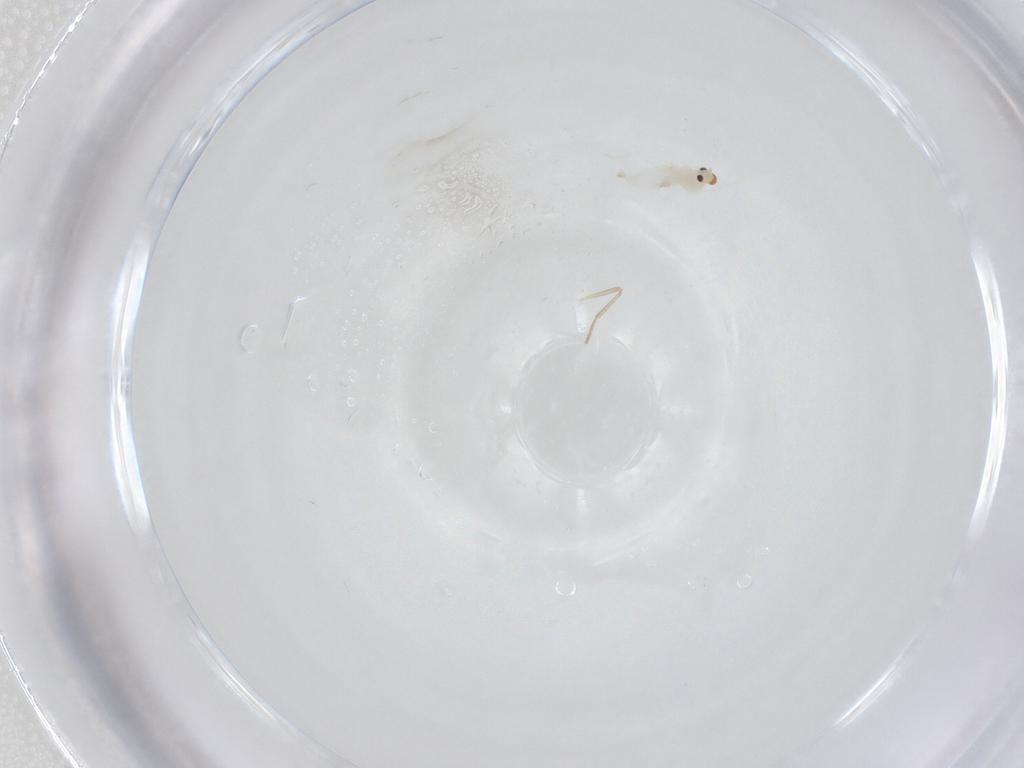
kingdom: Animalia
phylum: Arthropoda
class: Insecta
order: Diptera
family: Cecidomyiidae
